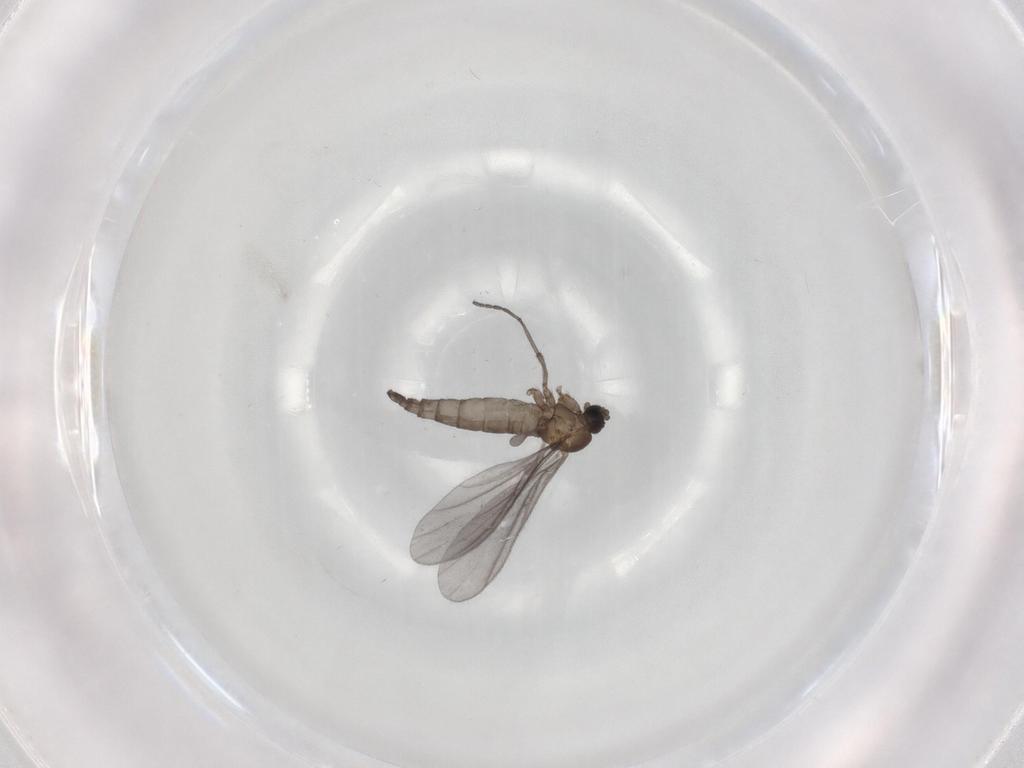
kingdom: Animalia
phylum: Arthropoda
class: Insecta
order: Diptera
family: Sciaridae
